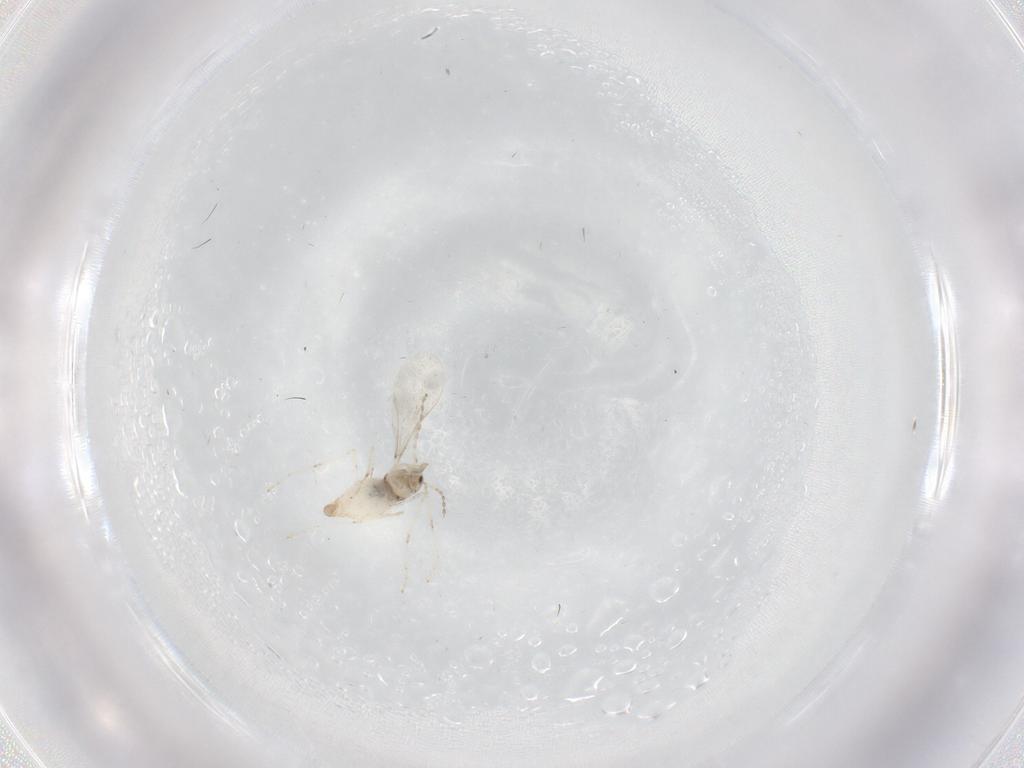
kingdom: Animalia
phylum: Arthropoda
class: Insecta
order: Diptera
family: Cecidomyiidae
